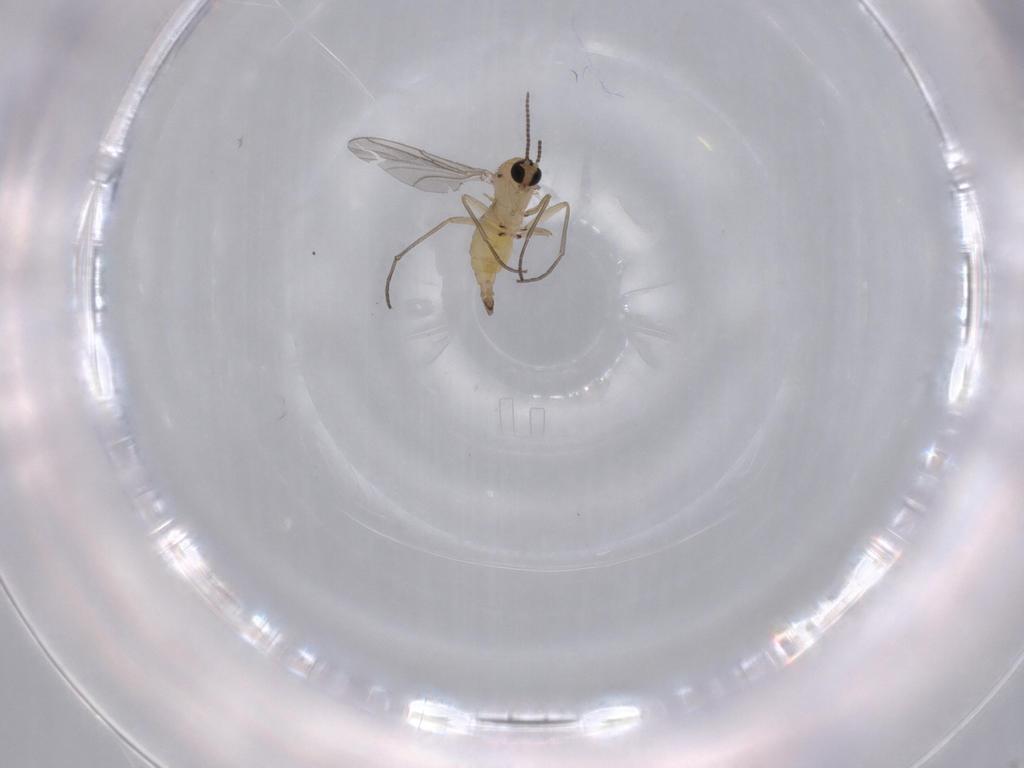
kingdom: Animalia
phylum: Arthropoda
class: Insecta
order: Diptera
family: Sciaridae
